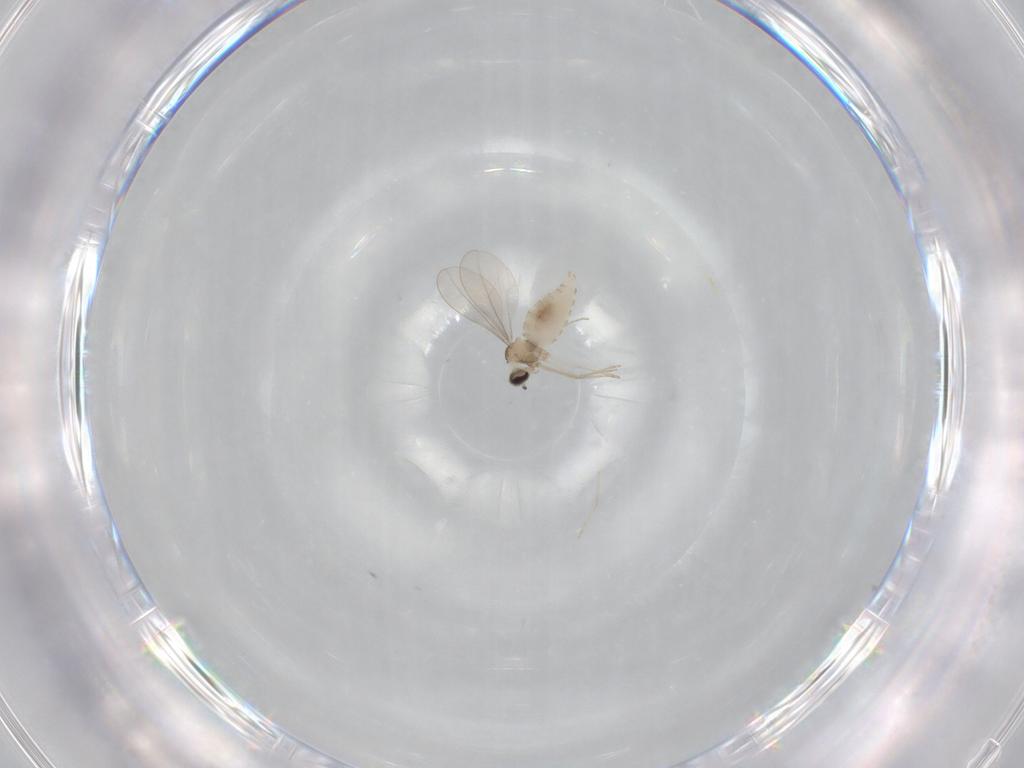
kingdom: Animalia
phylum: Arthropoda
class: Insecta
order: Diptera
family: Cecidomyiidae
